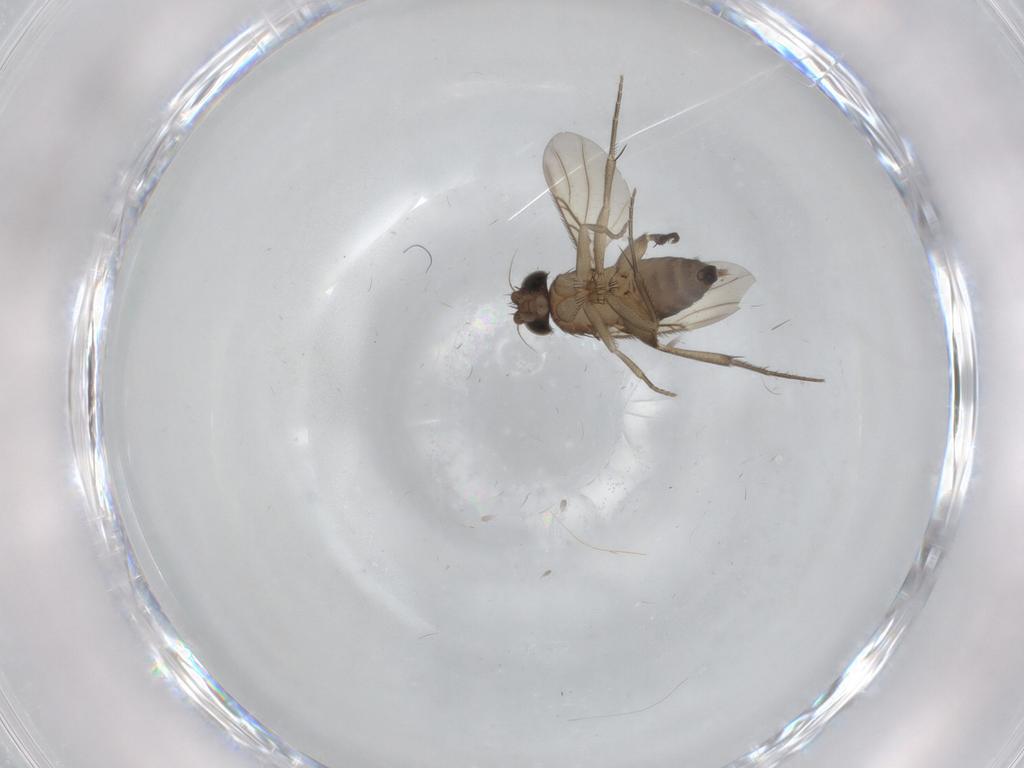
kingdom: Animalia
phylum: Arthropoda
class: Insecta
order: Diptera
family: Phoridae
